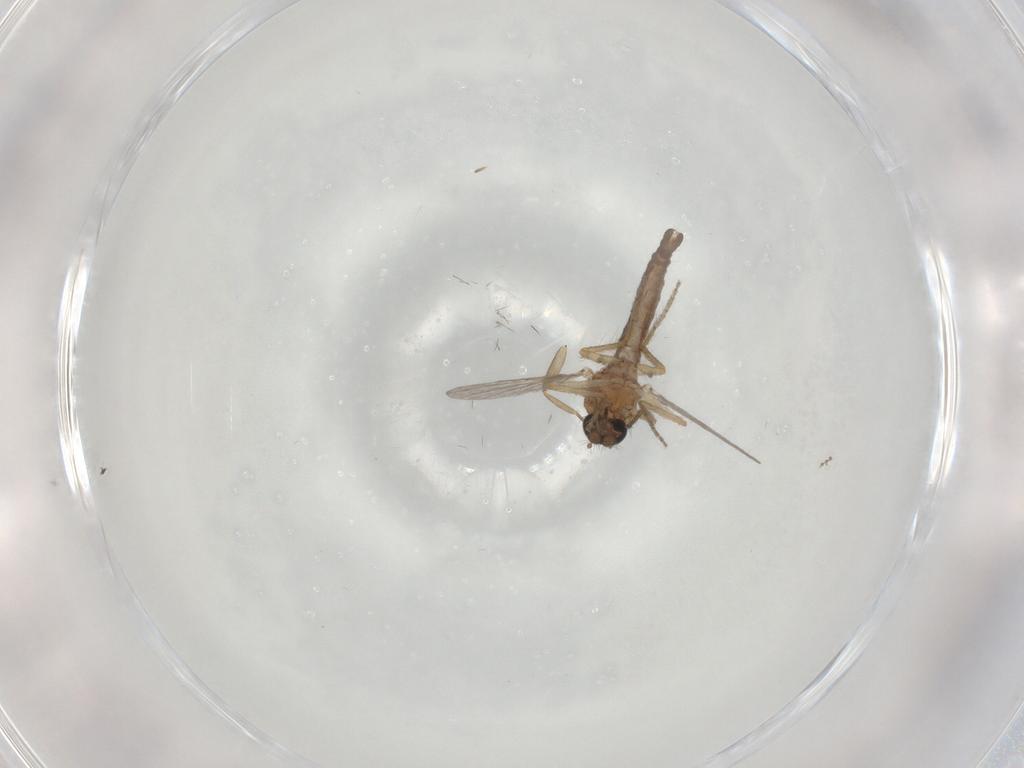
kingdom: Animalia
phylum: Arthropoda
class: Insecta
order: Diptera
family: Ceratopogonidae
